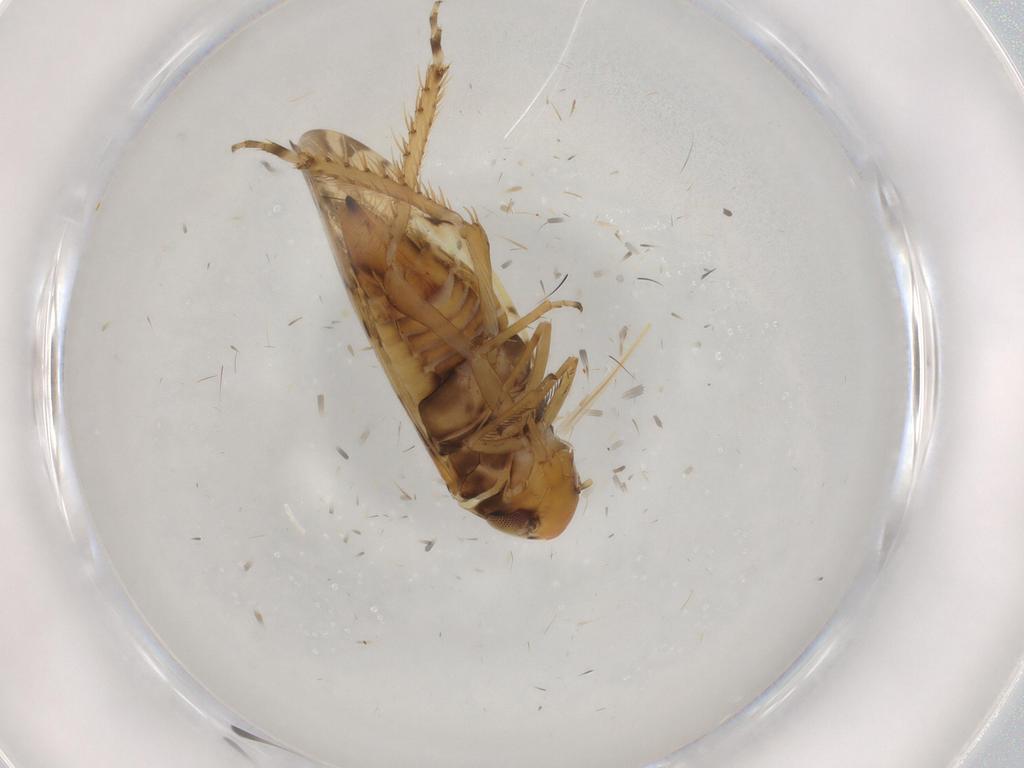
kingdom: Animalia
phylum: Arthropoda
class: Insecta
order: Hemiptera
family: Cicadellidae
